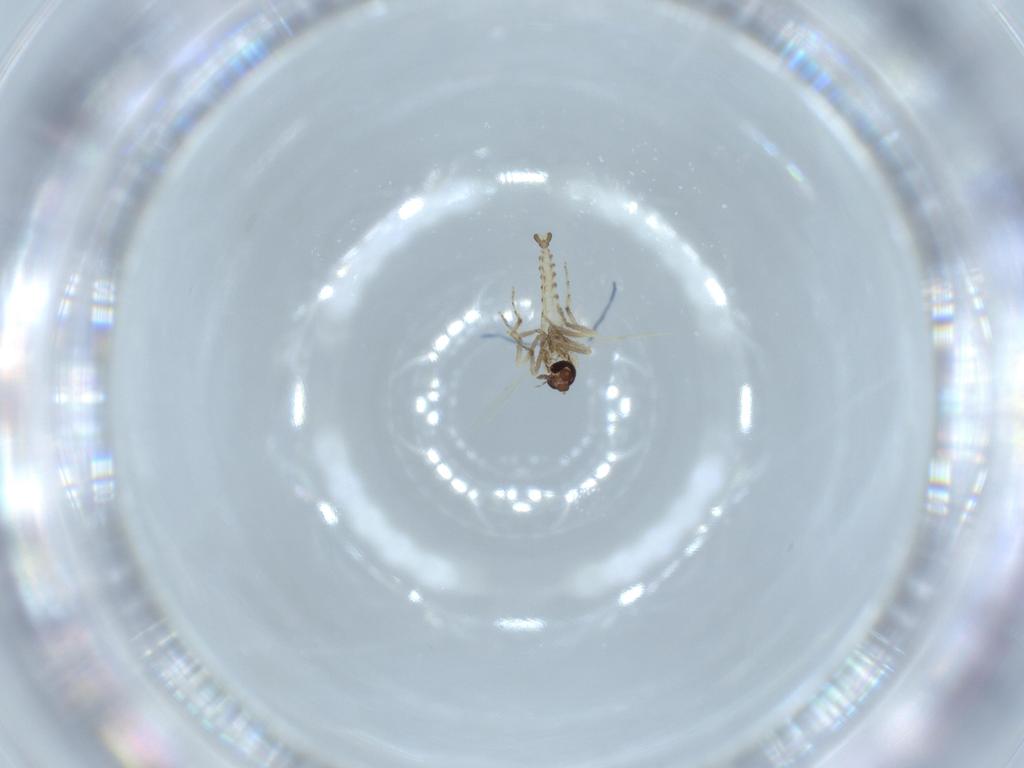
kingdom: Animalia
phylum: Arthropoda
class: Insecta
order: Diptera
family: Ceratopogonidae
